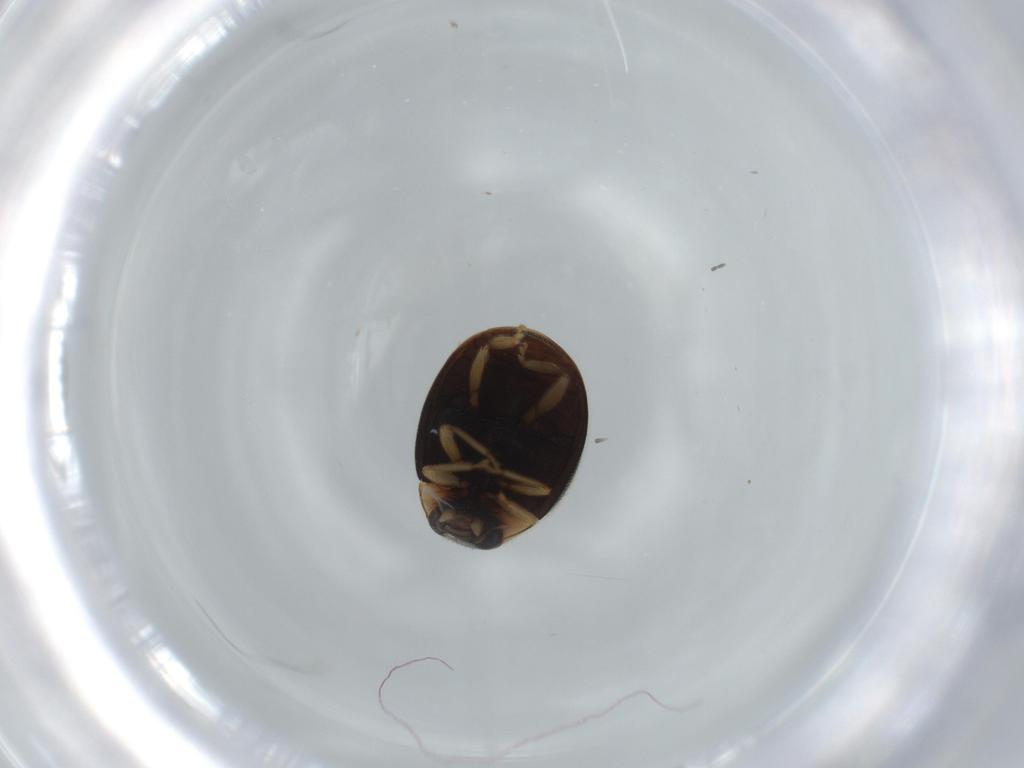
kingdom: Animalia
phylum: Arthropoda
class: Insecta
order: Coleoptera
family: Coccinellidae
